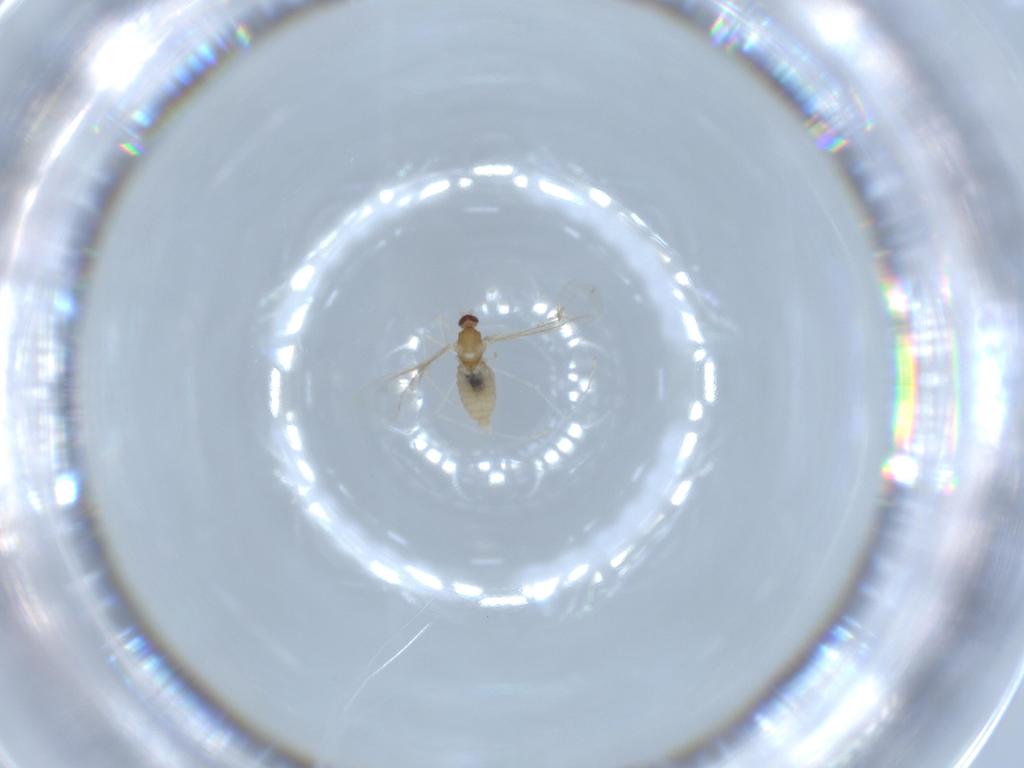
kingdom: Animalia
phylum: Arthropoda
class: Insecta
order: Diptera
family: Cecidomyiidae
